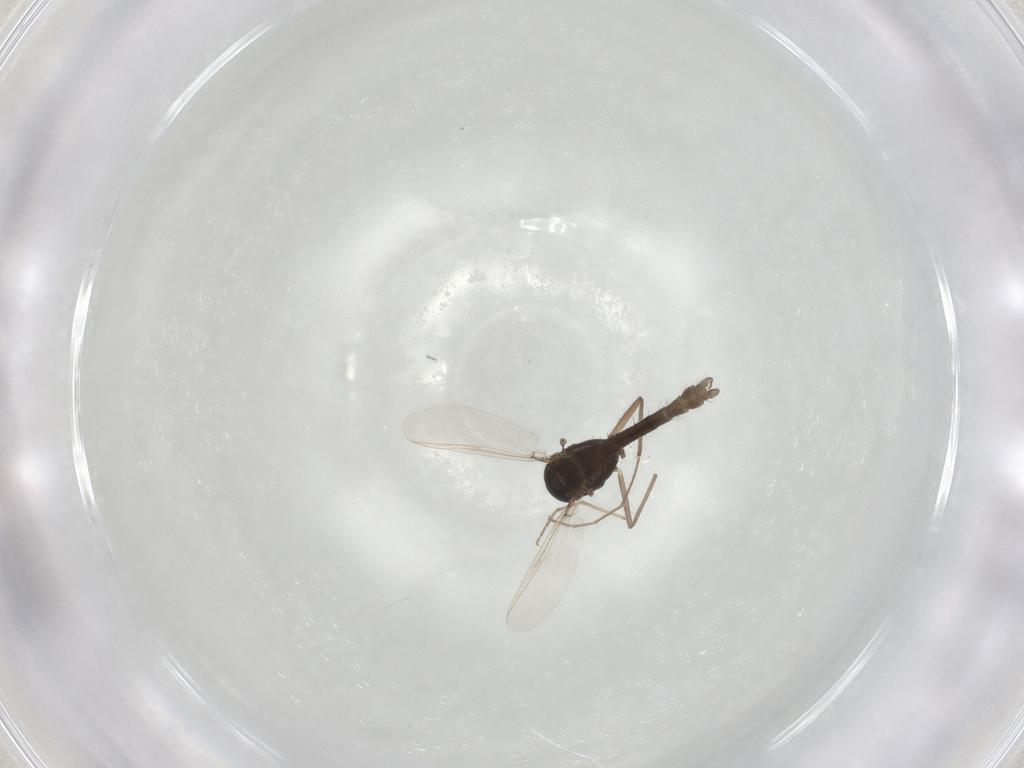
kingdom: Animalia
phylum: Arthropoda
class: Insecta
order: Diptera
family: Chironomidae
